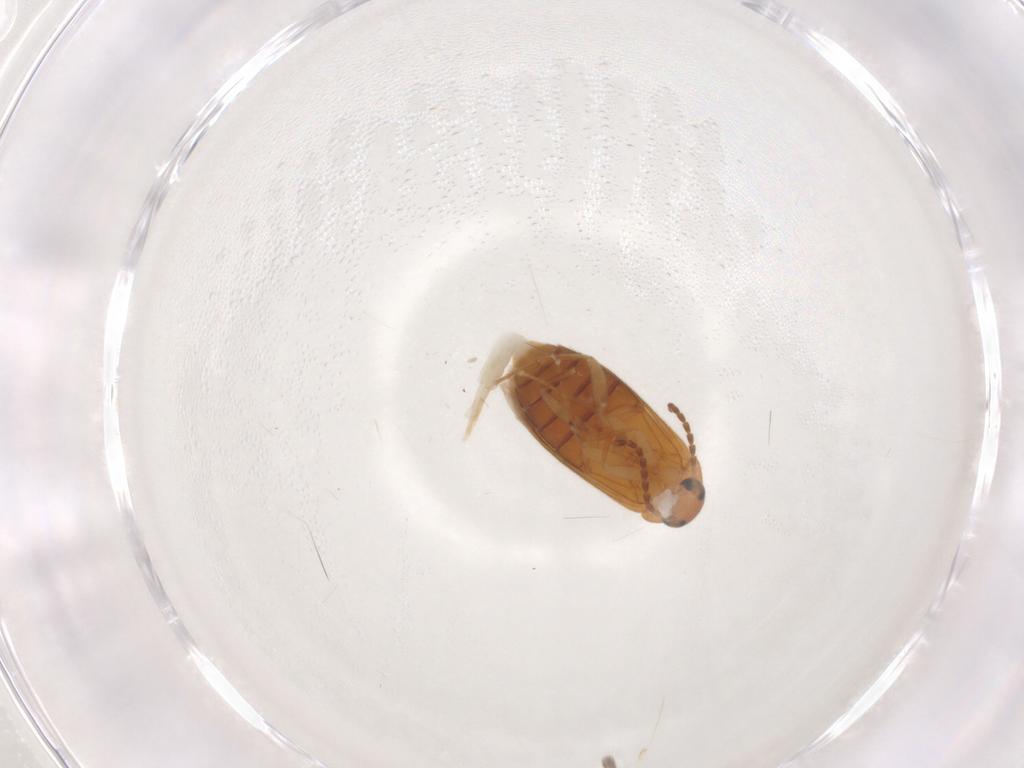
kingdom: Animalia
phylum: Arthropoda
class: Insecta
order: Coleoptera
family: Scraptiidae
